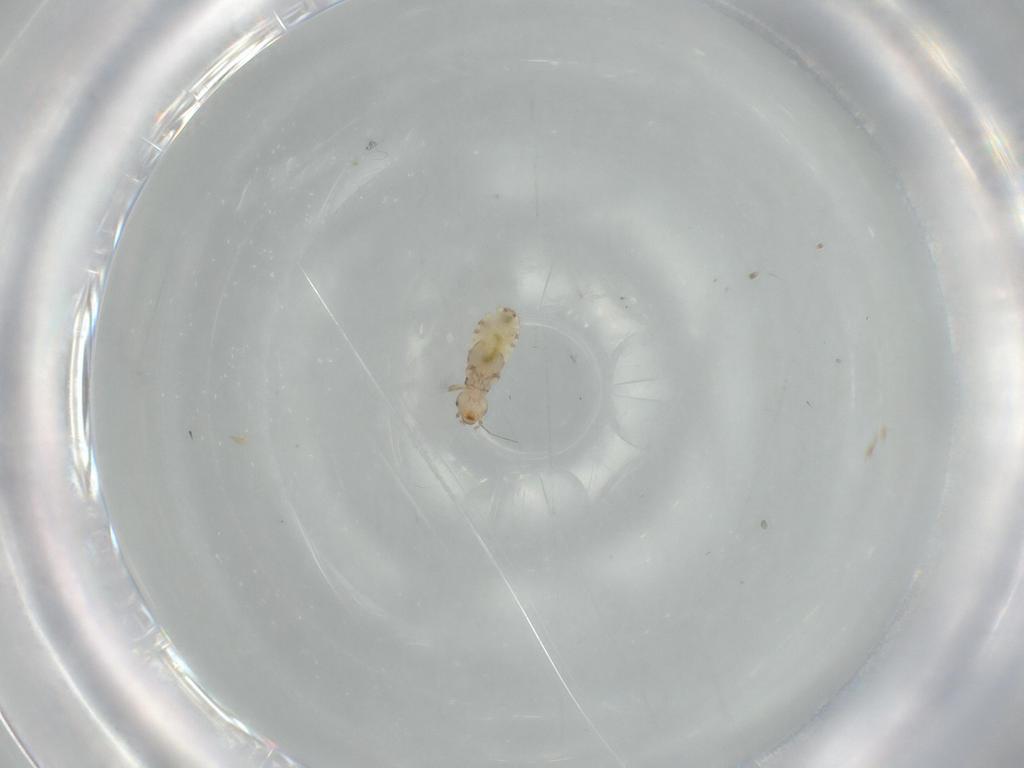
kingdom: Animalia
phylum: Arthropoda
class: Insecta
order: Psocodea
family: Liposcelididae
